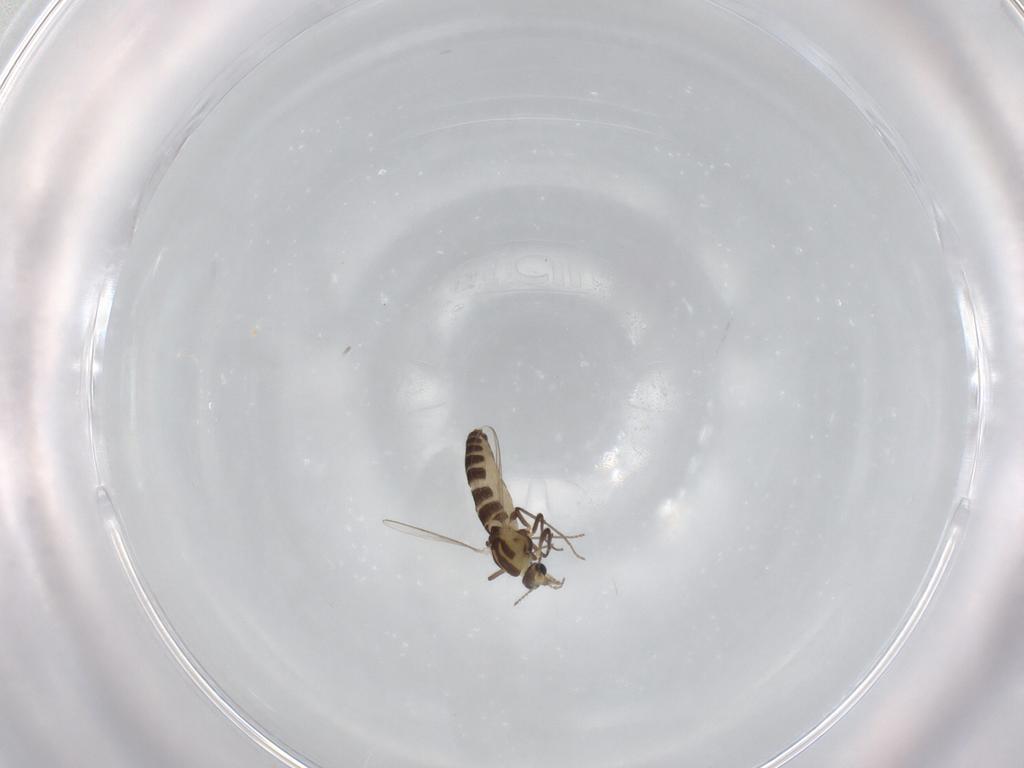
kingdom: Animalia
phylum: Arthropoda
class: Insecta
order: Diptera
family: Chironomidae
